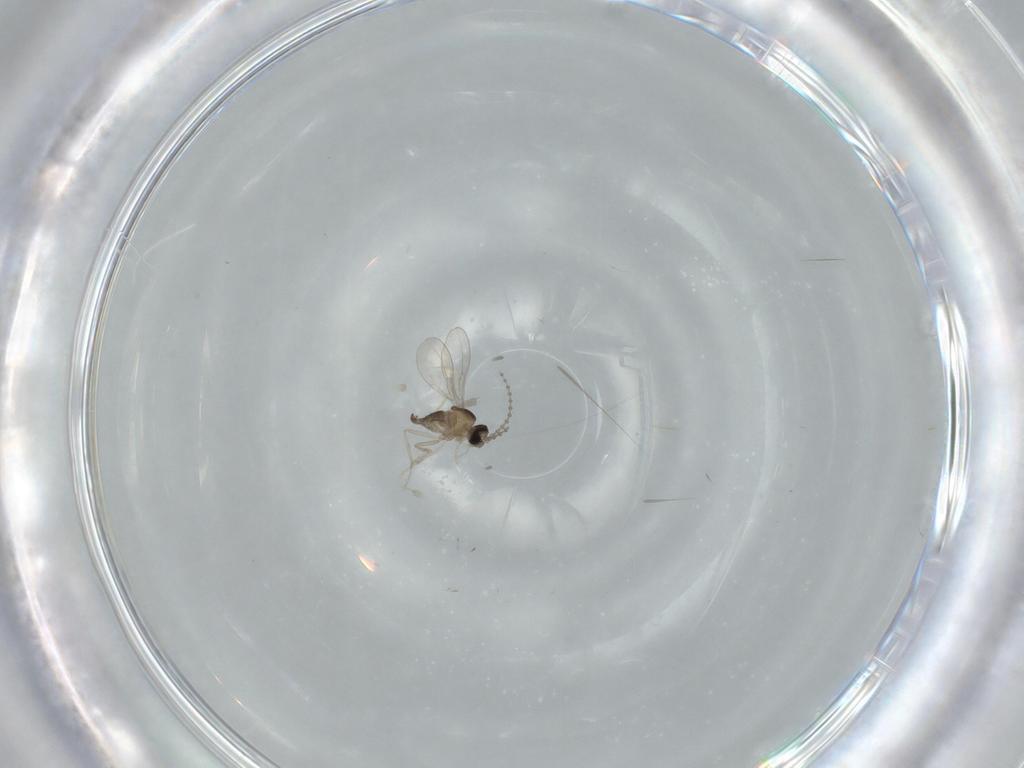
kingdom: Animalia
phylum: Arthropoda
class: Insecta
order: Diptera
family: Cecidomyiidae
